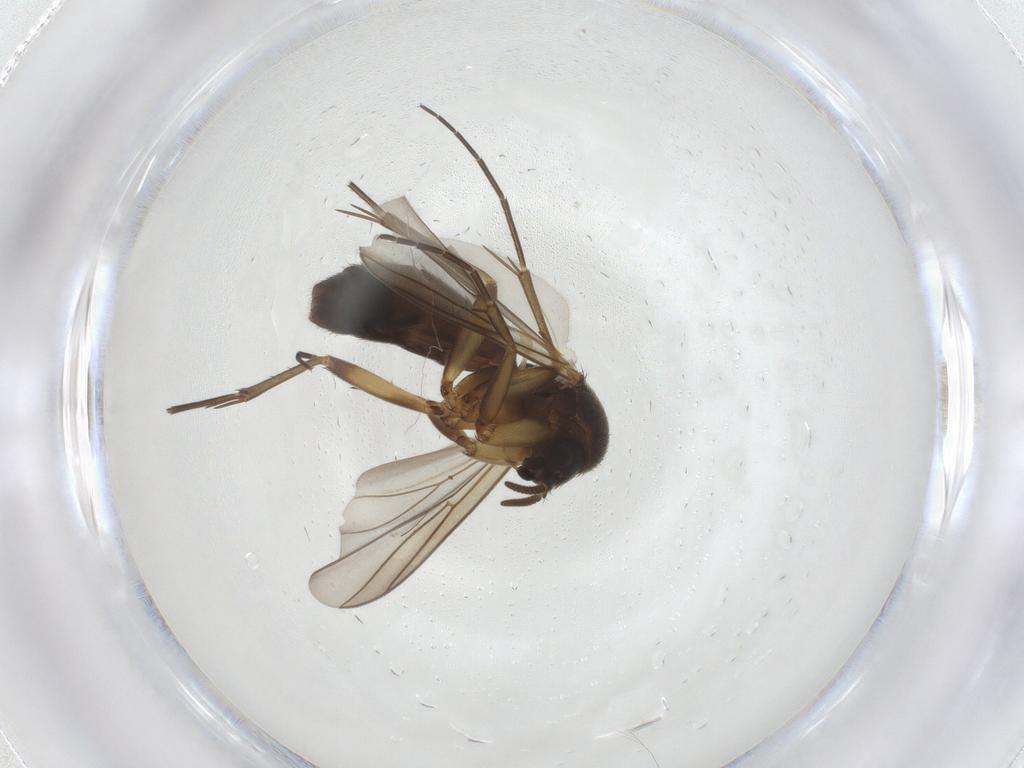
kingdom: Animalia
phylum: Arthropoda
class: Insecta
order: Diptera
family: Mycetophilidae
